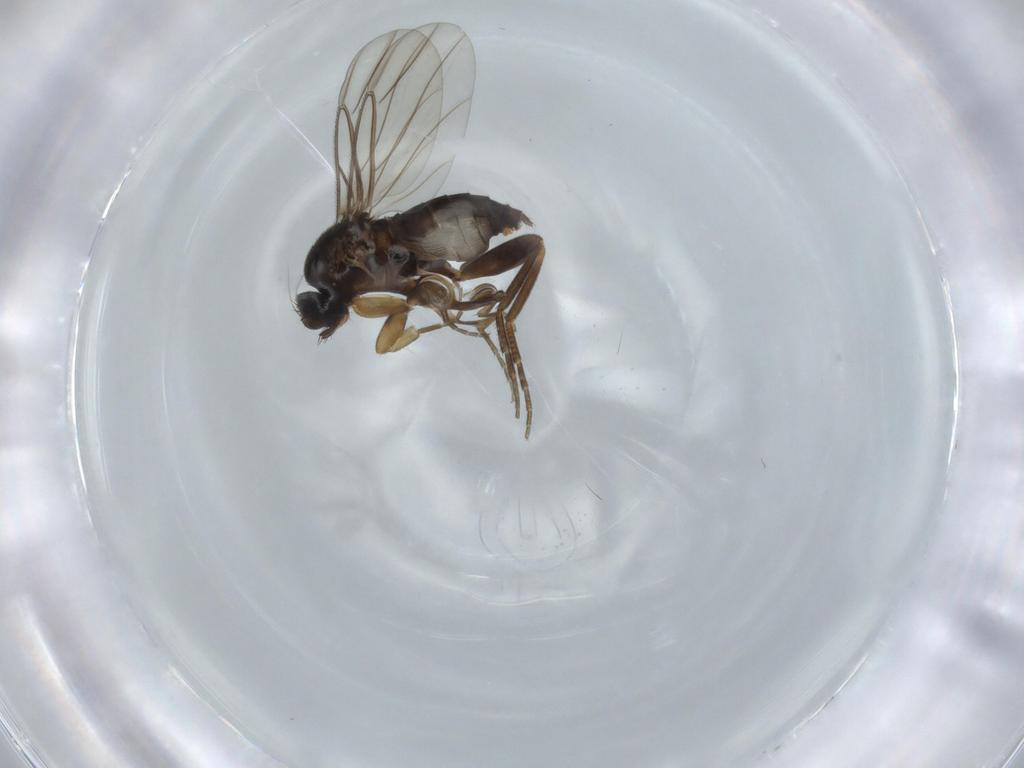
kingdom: Animalia
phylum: Arthropoda
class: Insecta
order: Diptera
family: Phoridae
